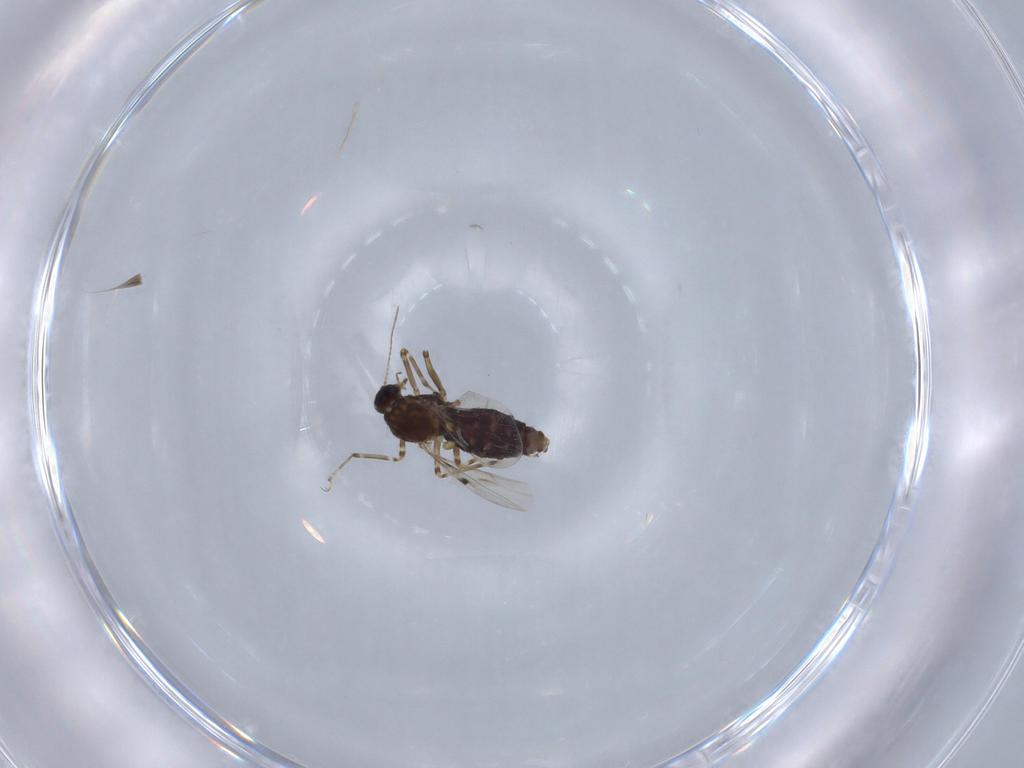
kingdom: Animalia
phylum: Arthropoda
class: Insecta
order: Diptera
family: Ceratopogonidae
